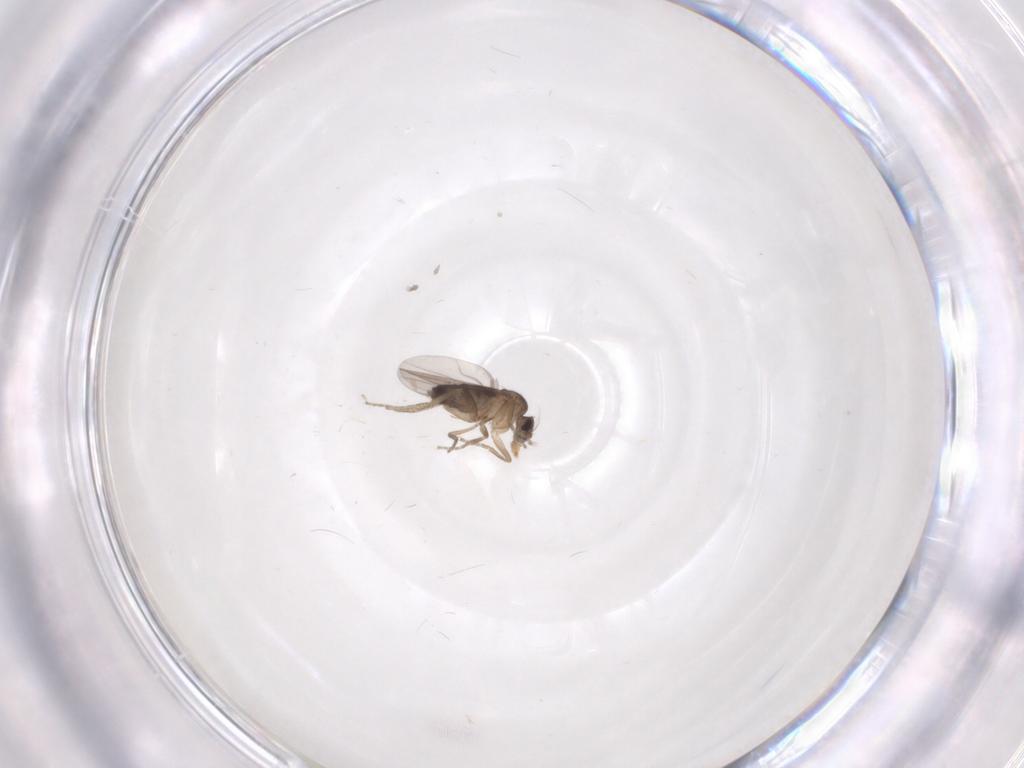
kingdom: Animalia
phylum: Arthropoda
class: Insecta
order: Diptera
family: Phoridae
